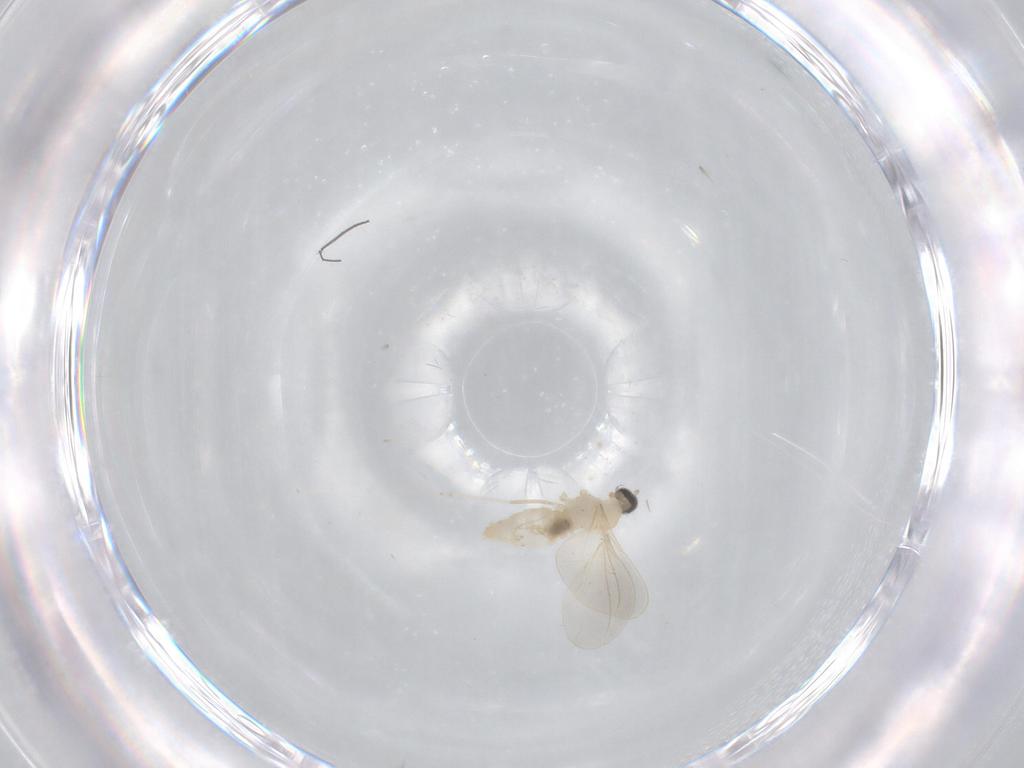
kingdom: Animalia
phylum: Arthropoda
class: Insecta
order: Diptera
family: Cecidomyiidae
